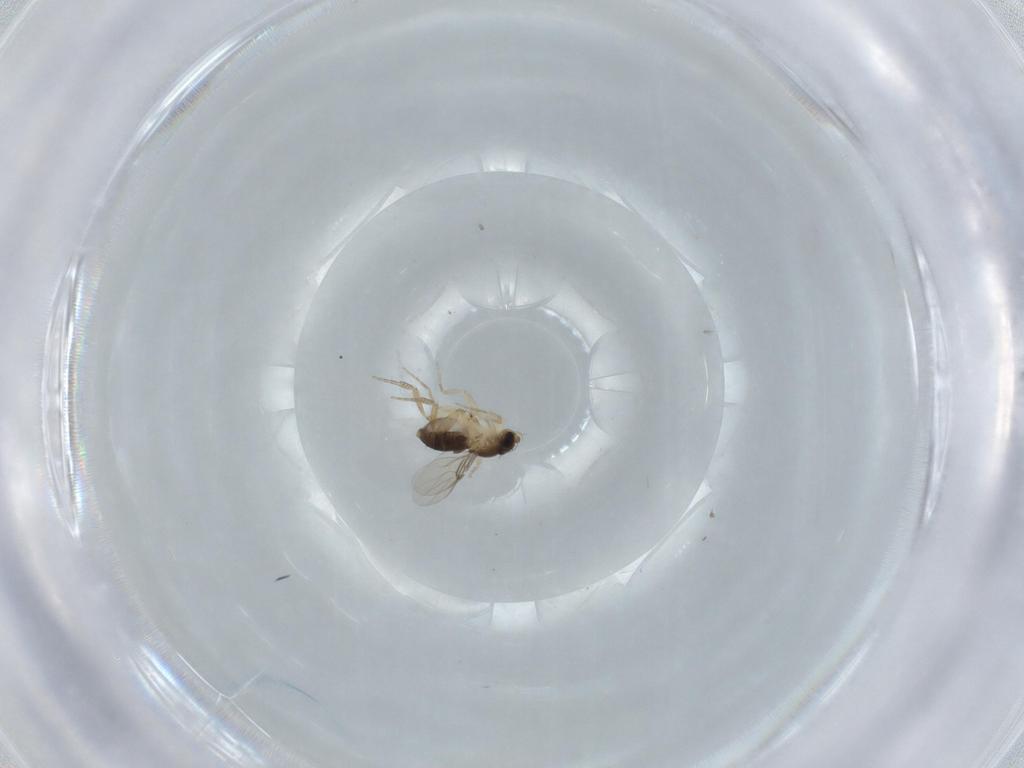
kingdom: Animalia
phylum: Arthropoda
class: Insecta
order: Diptera
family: Phoridae
